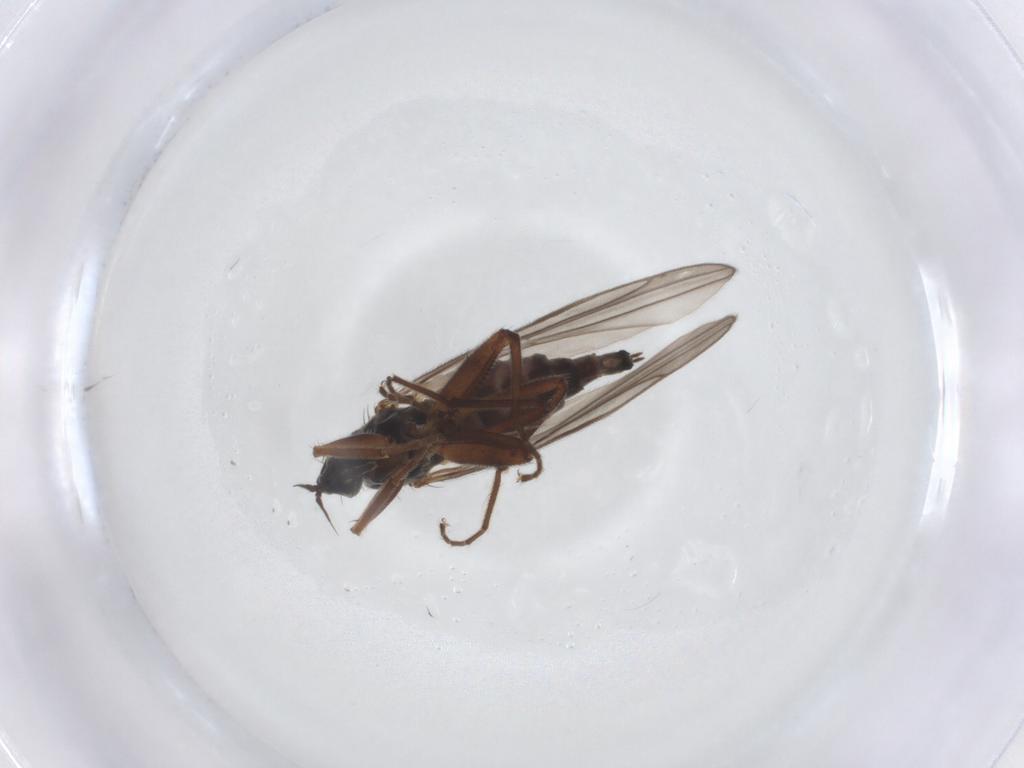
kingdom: Animalia
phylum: Arthropoda
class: Insecta
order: Diptera
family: Hybotidae
